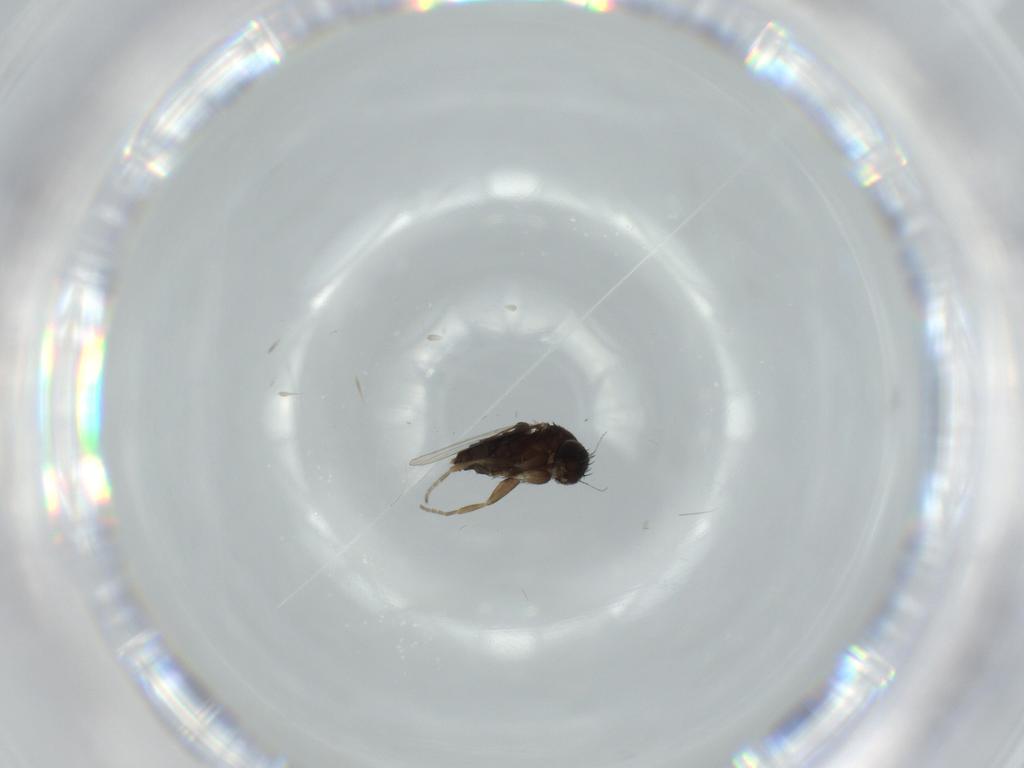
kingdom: Animalia
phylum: Arthropoda
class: Insecta
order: Diptera
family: Phoridae
